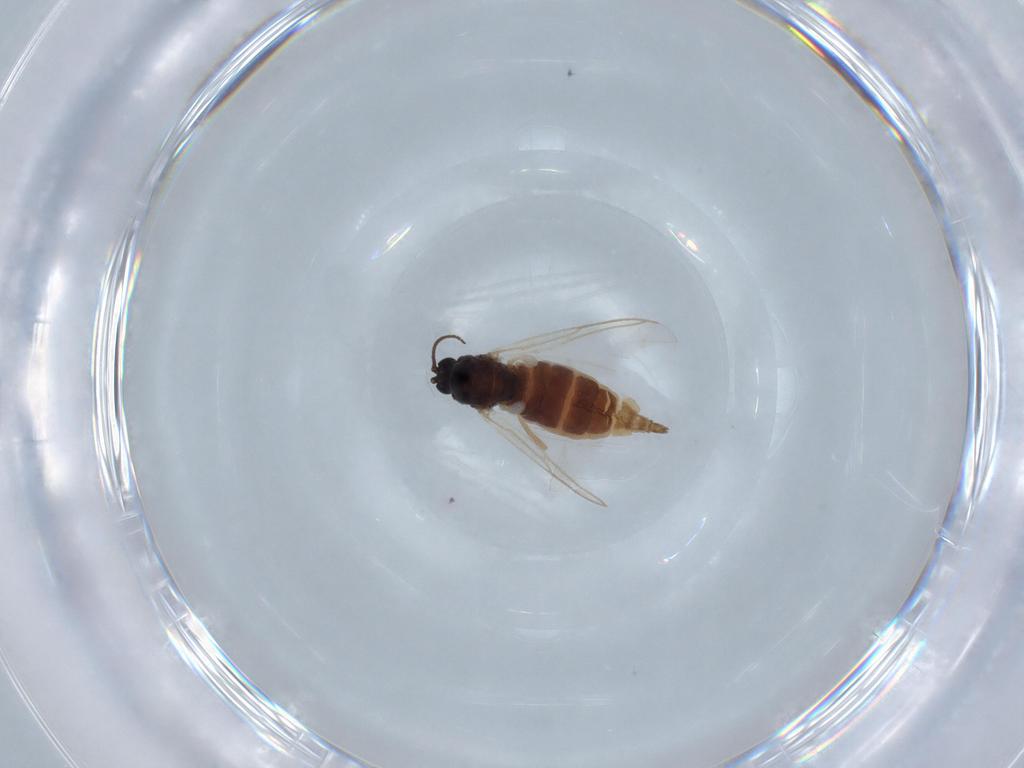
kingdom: Animalia
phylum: Arthropoda
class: Insecta
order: Diptera
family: Sciaridae
